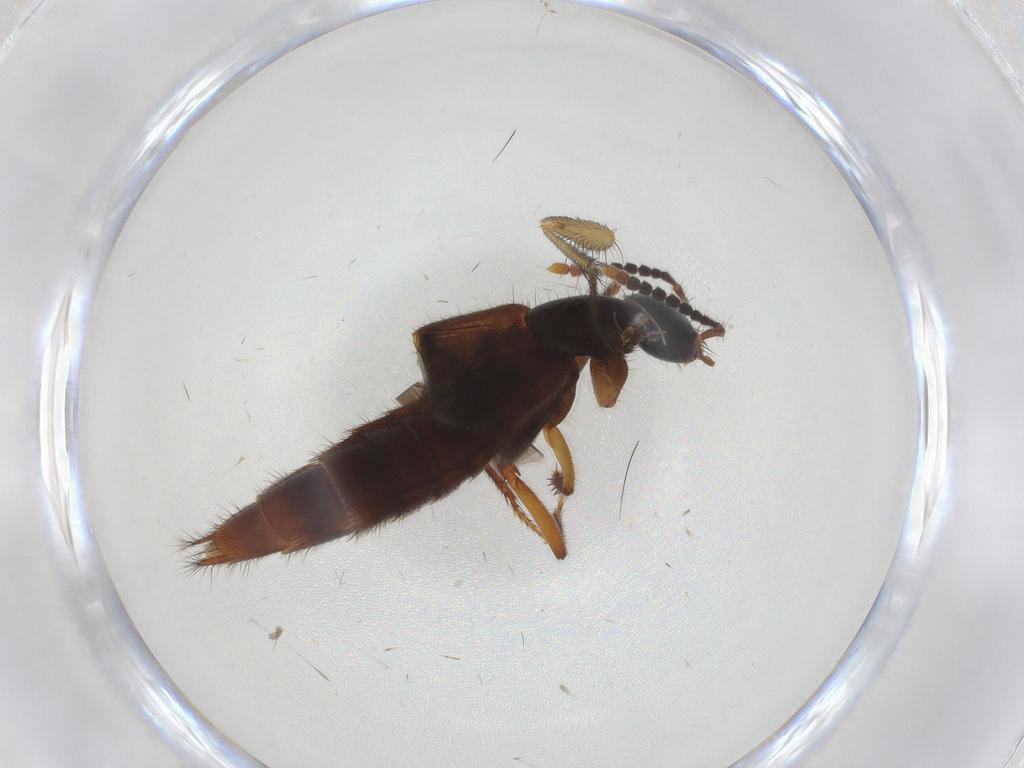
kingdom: Animalia
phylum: Arthropoda
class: Insecta
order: Coleoptera
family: Staphylinidae
